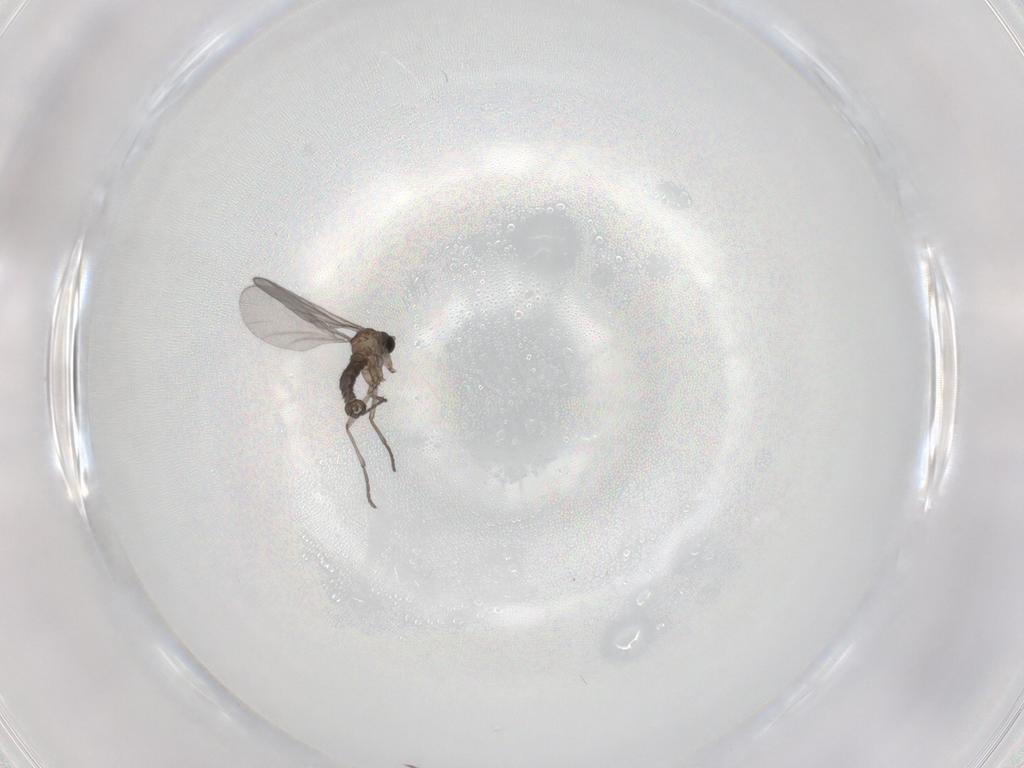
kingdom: Animalia
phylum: Arthropoda
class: Insecta
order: Diptera
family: Sciaridae
